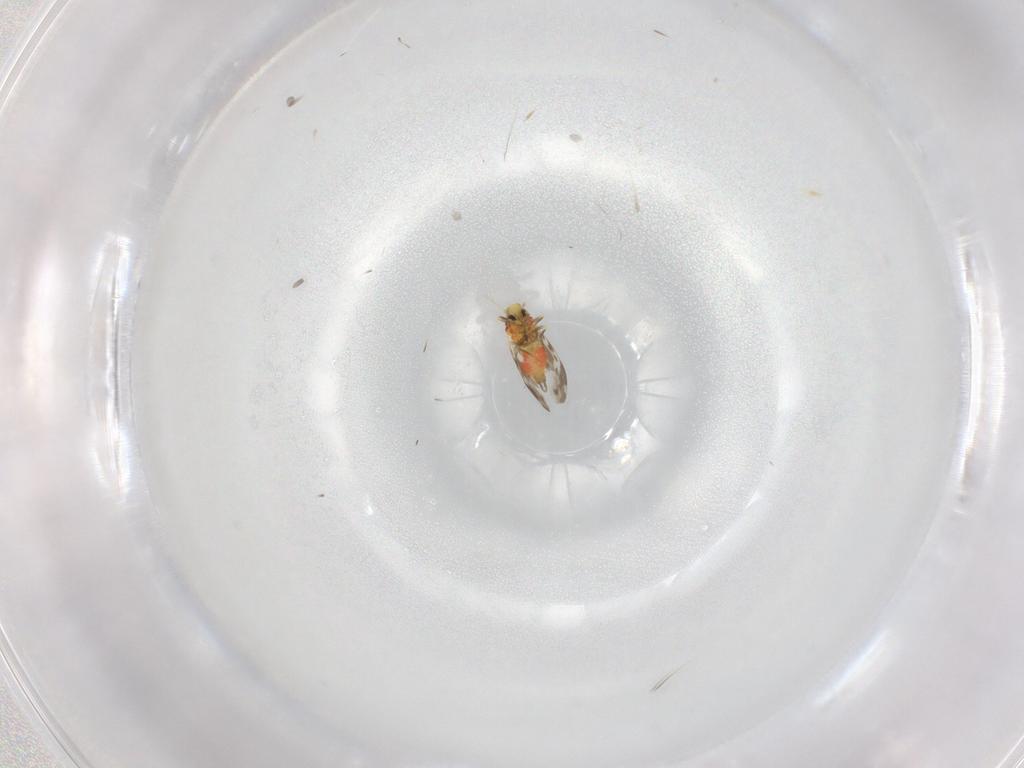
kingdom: Animalia
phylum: Arthropoda
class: Insecta
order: Hemiptera
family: Aleyrodidae
